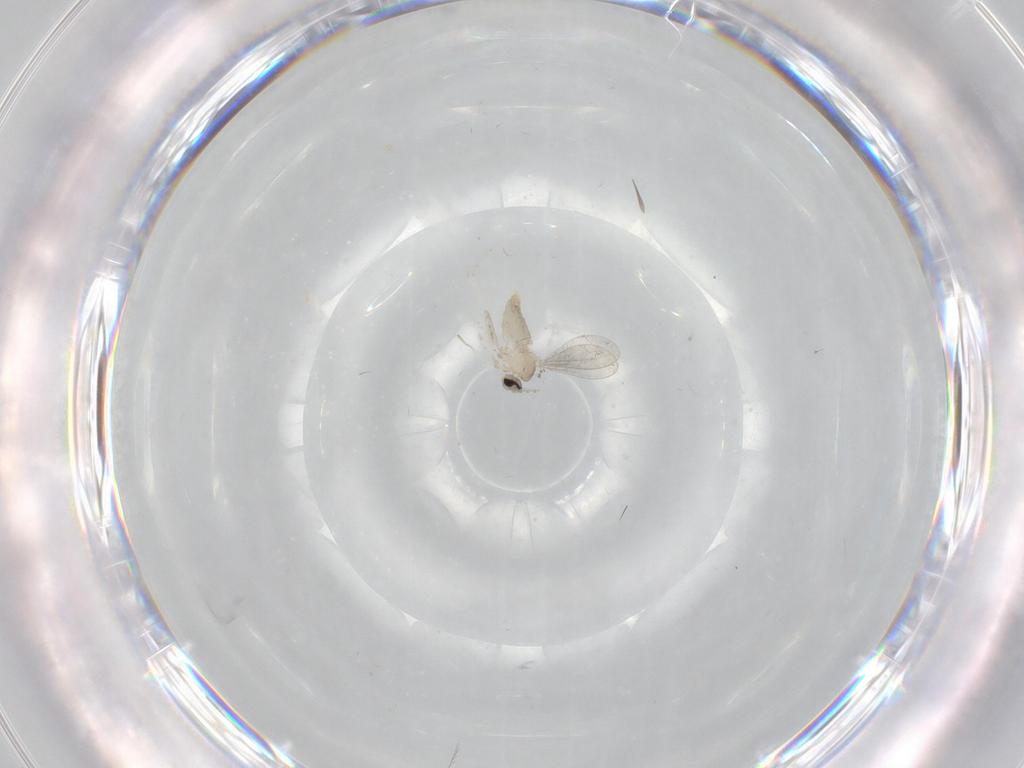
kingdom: Animalia
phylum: Arthropoda
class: Insecta
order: Diptera
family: Cecidomyiidae
